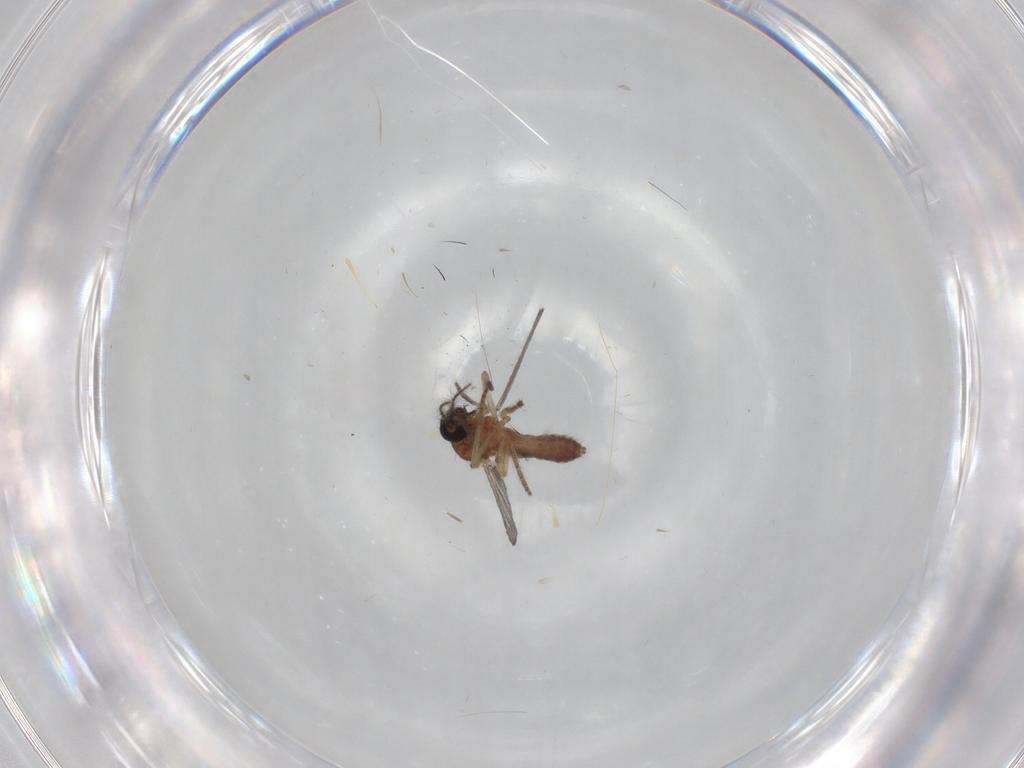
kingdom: Animalia
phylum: Arthropoda
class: Insecta
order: Diptera
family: Ceratopogonidae
